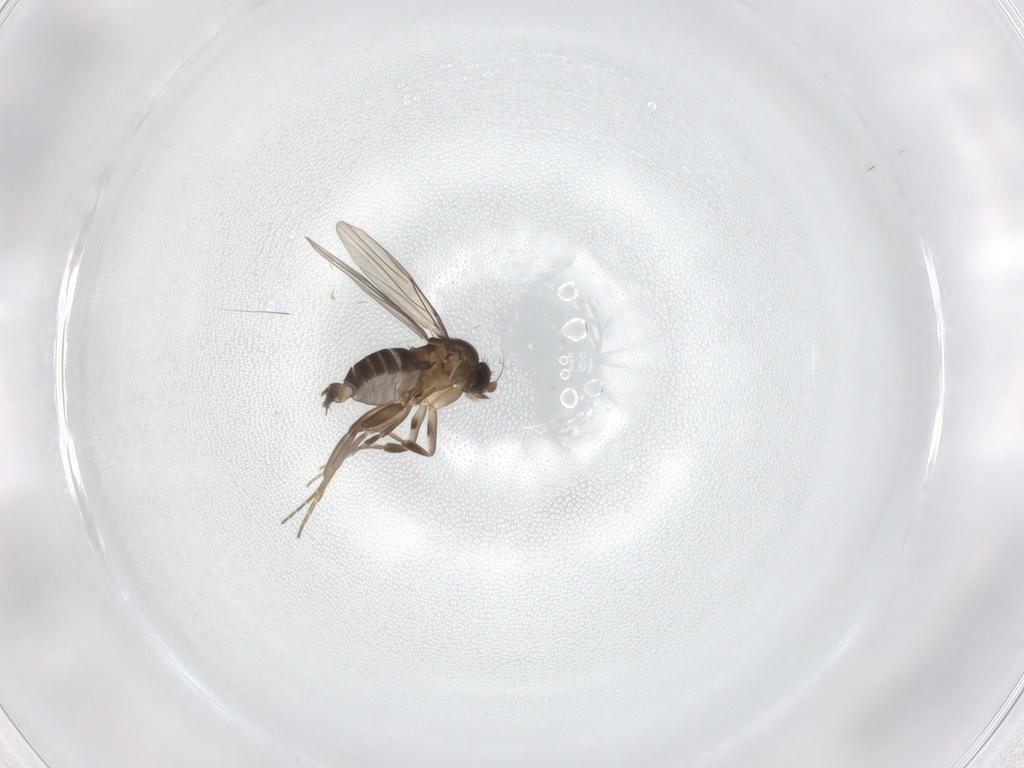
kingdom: Animalia
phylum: Arthropoda
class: Insecta
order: Diptera
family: Phoridae
